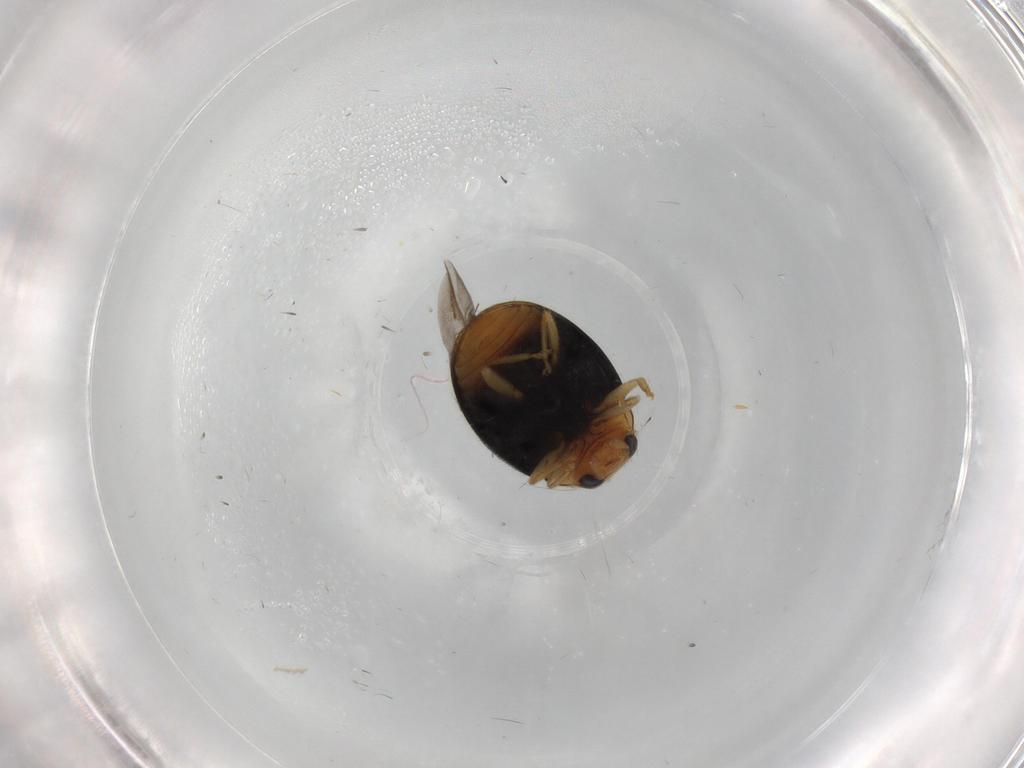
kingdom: Animalia
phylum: Arthropoda
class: Insecta
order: Coleoptera
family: Endomychidae
